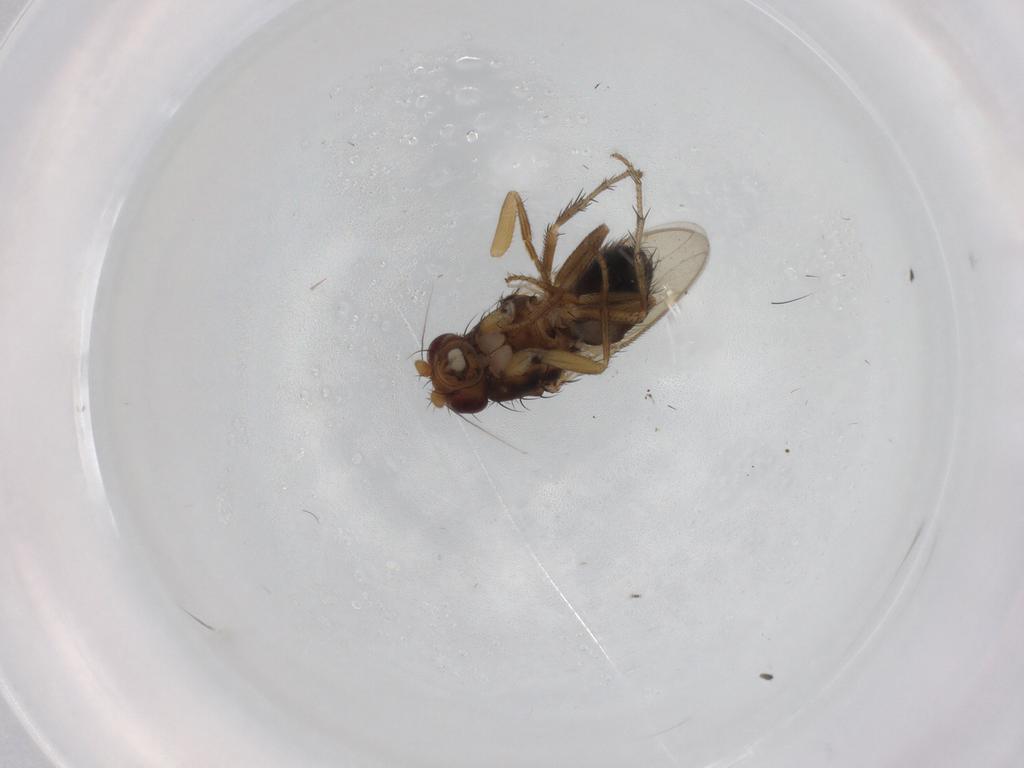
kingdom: Animalia
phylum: Arthropoda
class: Insecta
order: Diptera
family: Sphaeroceridae
